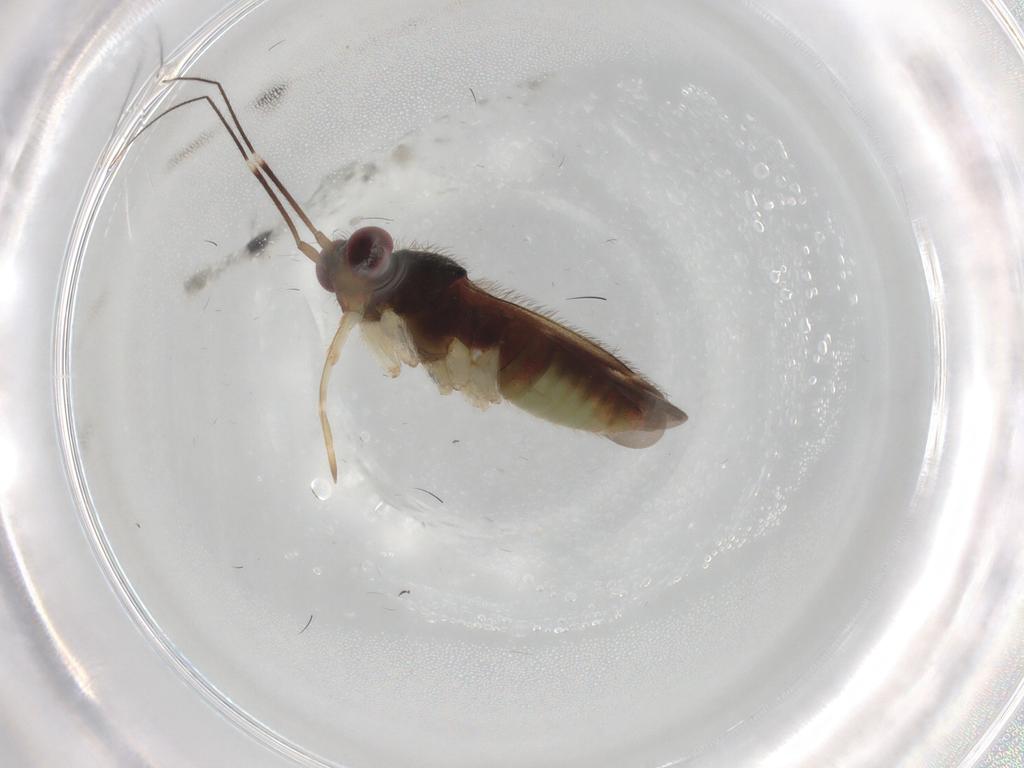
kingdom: Animalia
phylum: Arthropoda
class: Insecta
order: Hemiptera
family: Miridae
